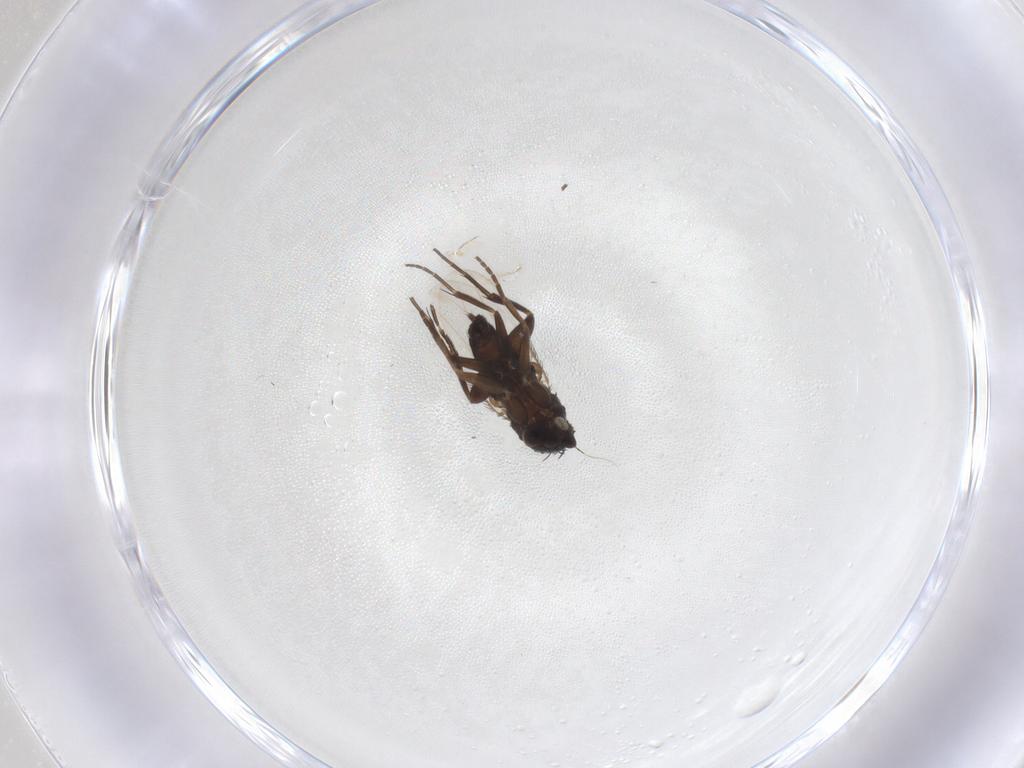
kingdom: Animalia
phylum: Arthropoda
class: Insecta
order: Diptera
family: Phoridae
